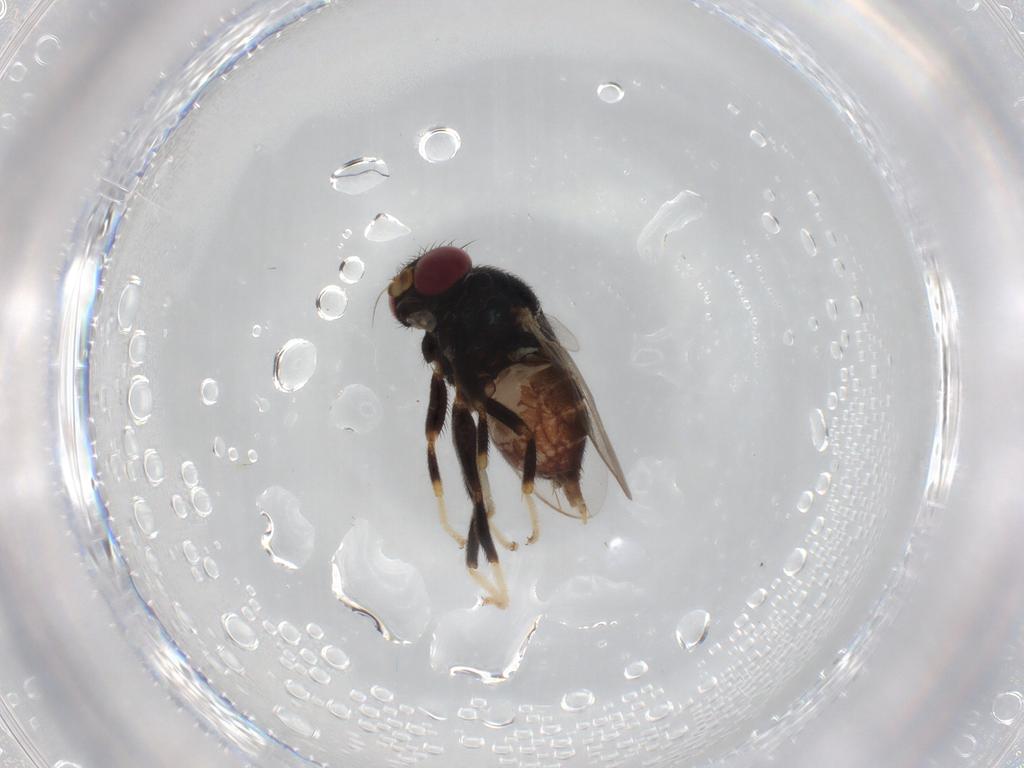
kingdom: Animalia
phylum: Arthropoda
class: Insecta
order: Diptera
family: Chloropidae
